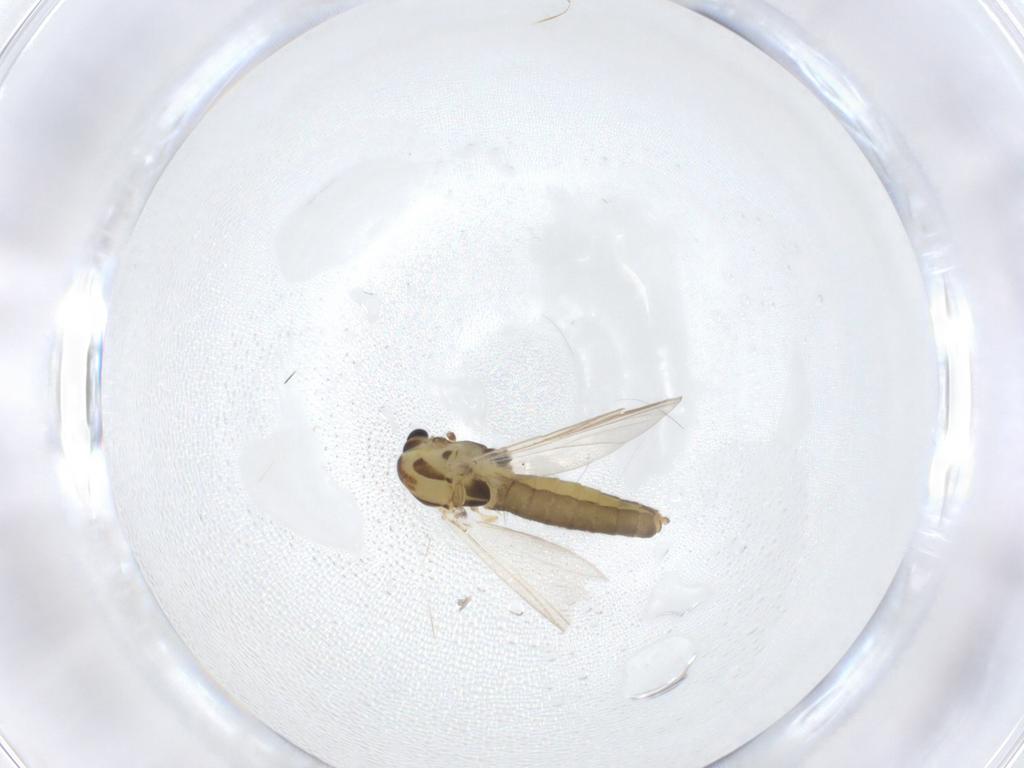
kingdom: Animalia
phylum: Arthropoda
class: Insecta
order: Diptera
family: Chironomidae
